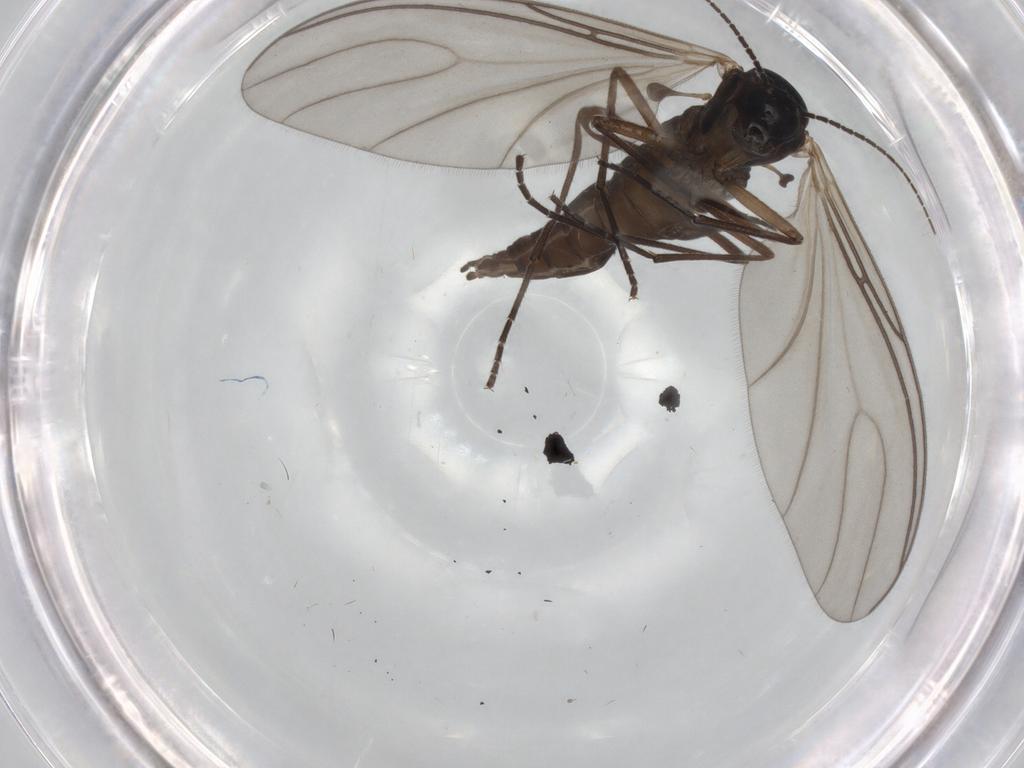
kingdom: Animalia
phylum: Arthropoda
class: Insecta
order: Diptera
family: Sciaridae
